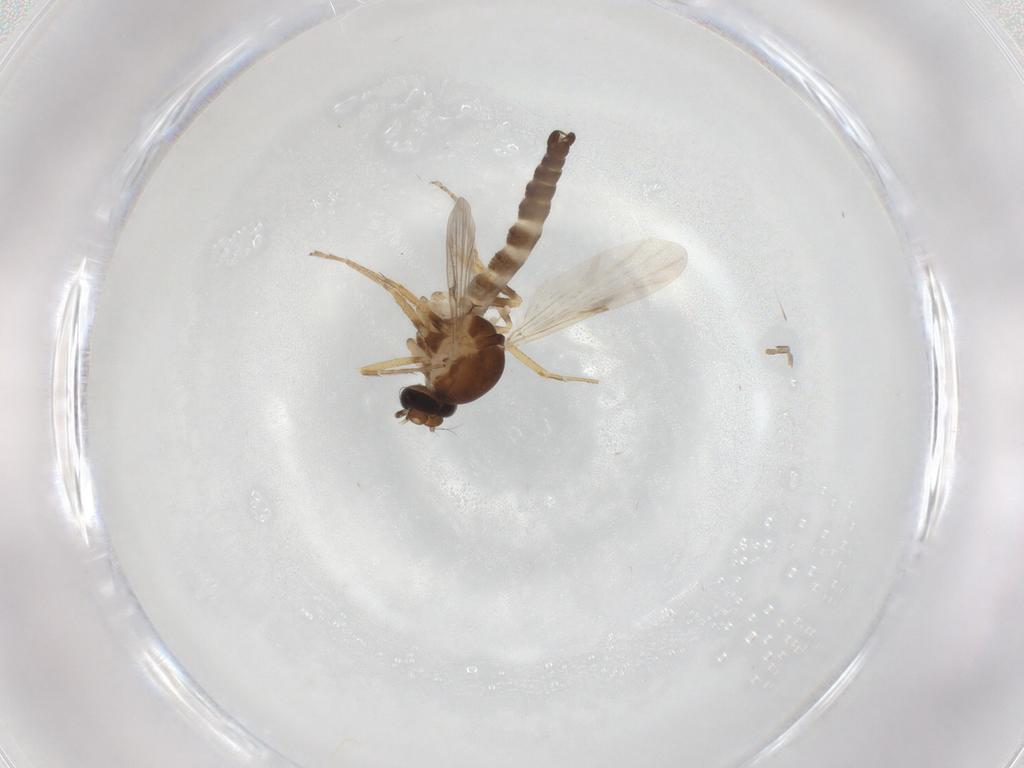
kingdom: Animalia
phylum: Arthropoda
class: Insecta
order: Diptera
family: Ceratopogonidae
